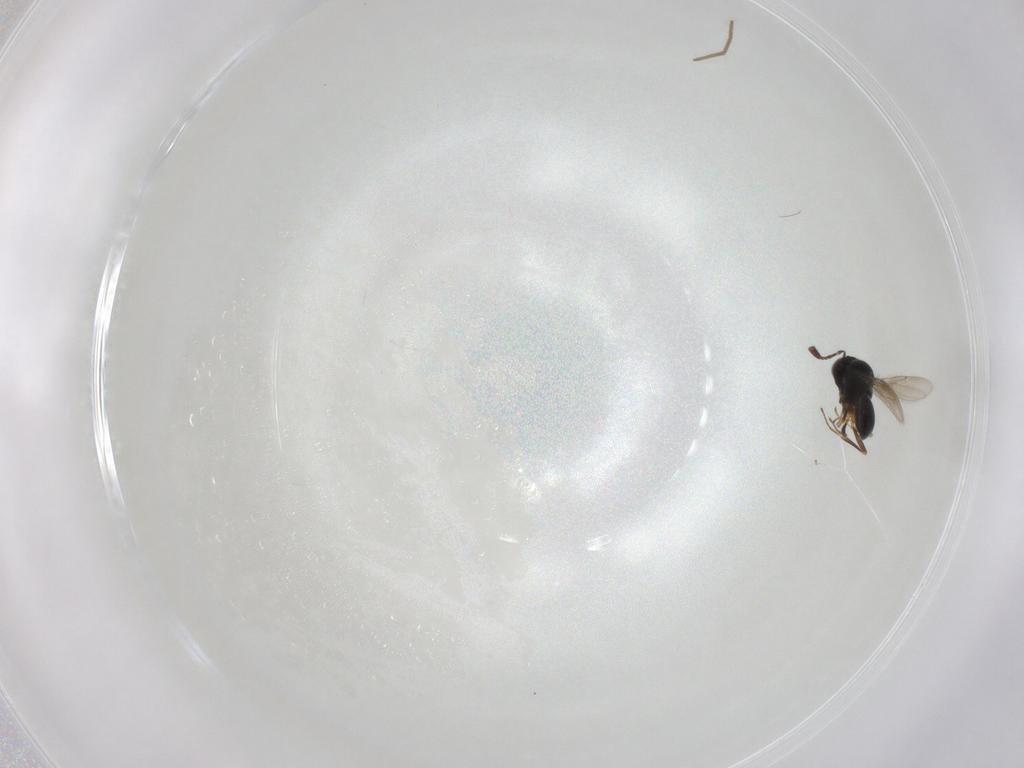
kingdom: Animalia
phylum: Arthropoda
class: Insecta
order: Hymenoptera
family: Scelionidae
